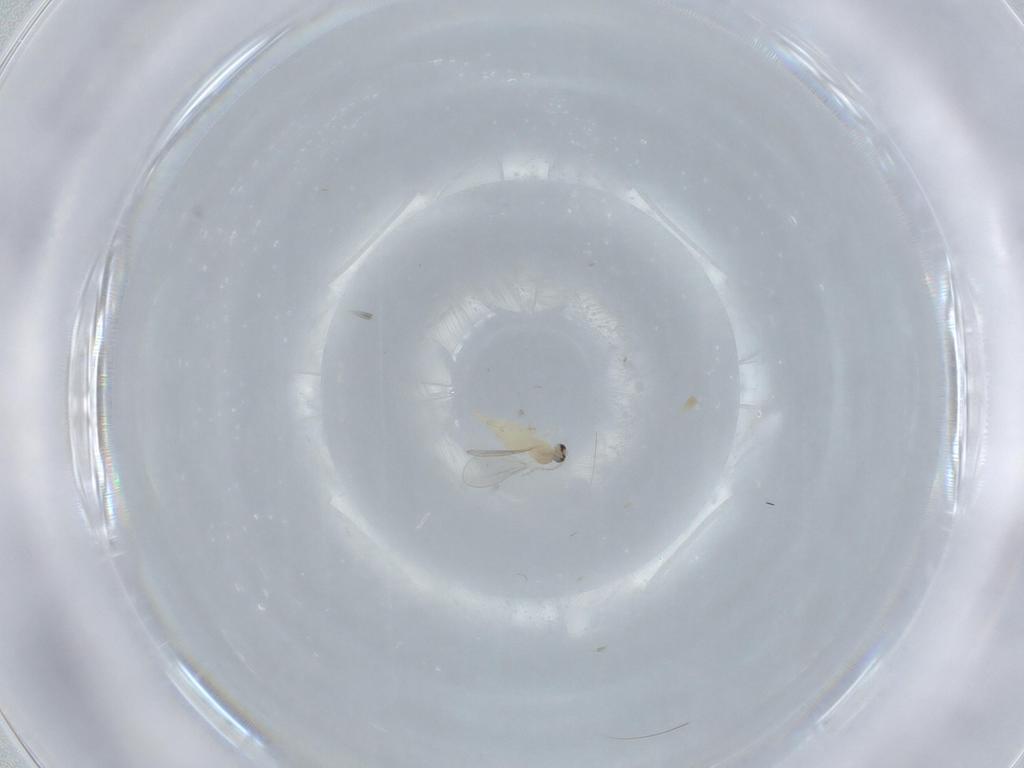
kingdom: Animalia
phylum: Arthropoda
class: Insecta
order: Diptera
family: Cecidomyiidae
